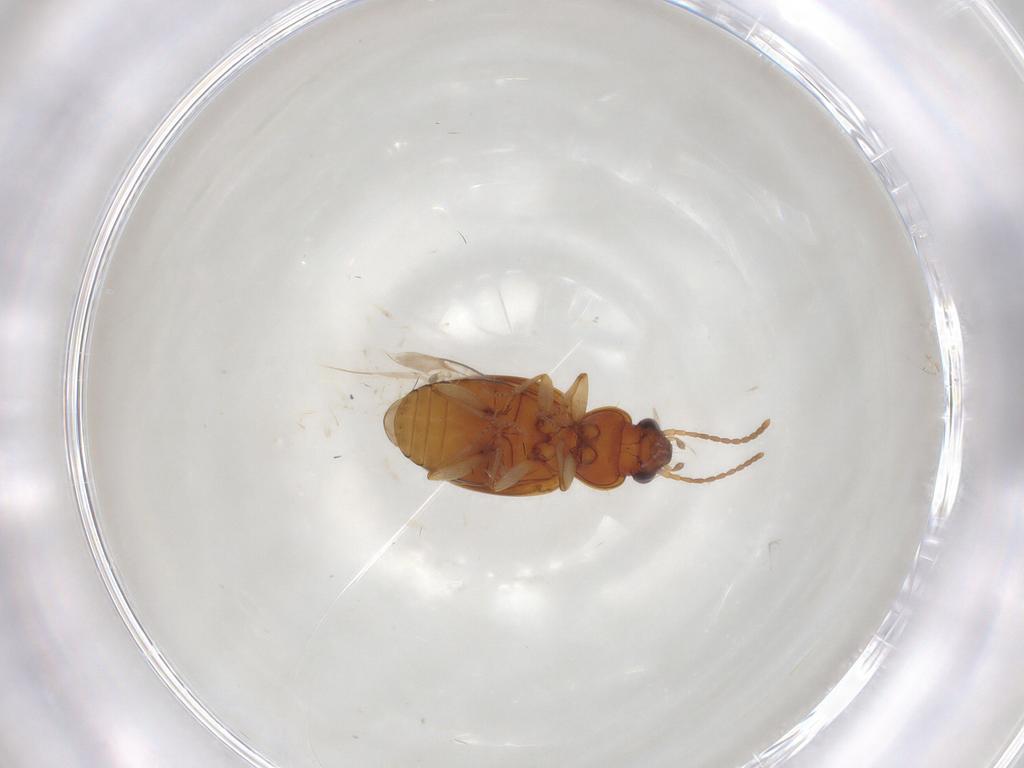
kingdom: Animalia
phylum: Arthropoda
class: Insecta
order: Coleoptera
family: Carabidae
